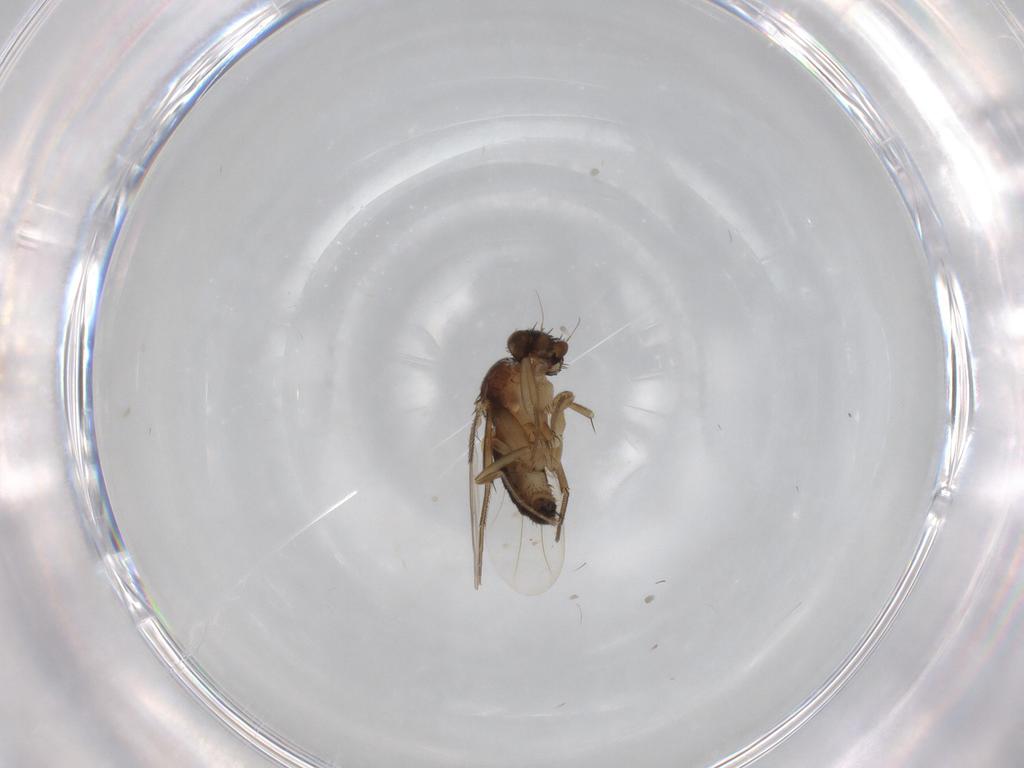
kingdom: Animalia
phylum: Arthropoda
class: Insecta
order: Diptera
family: Phoridae
